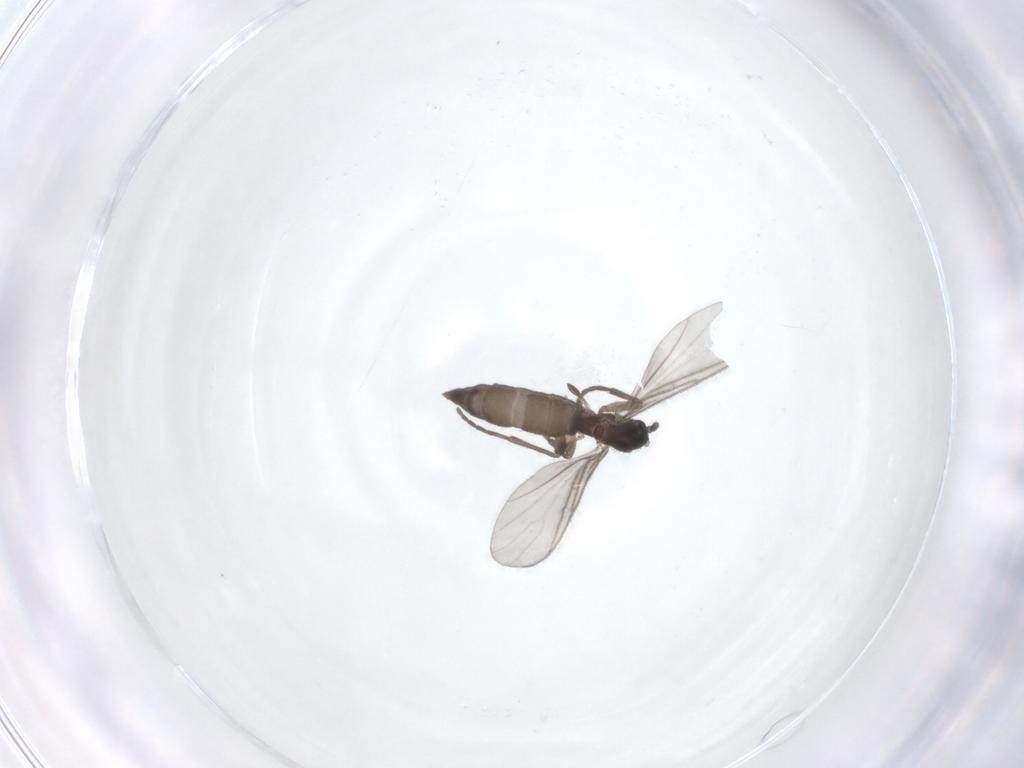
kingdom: Animalia
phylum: Arthropoda
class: Insecta
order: Diptera
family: Sciaridae
